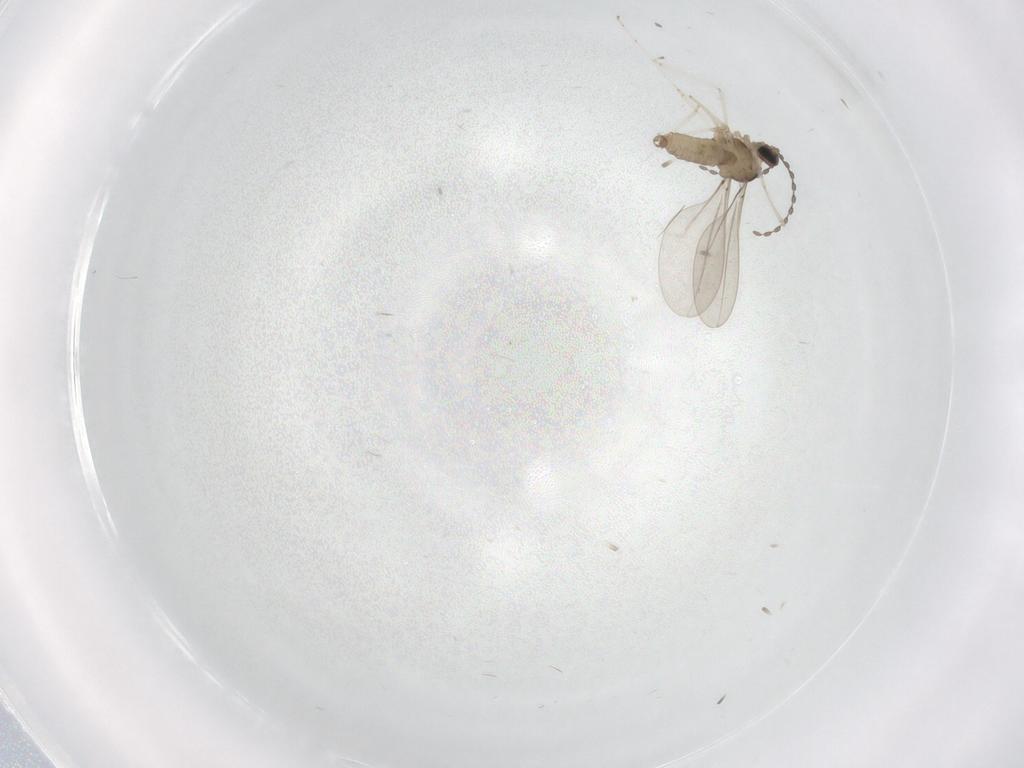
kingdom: Animalia
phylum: Arthropoda
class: Insecta
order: Diptera
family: Cecidomyiidae
